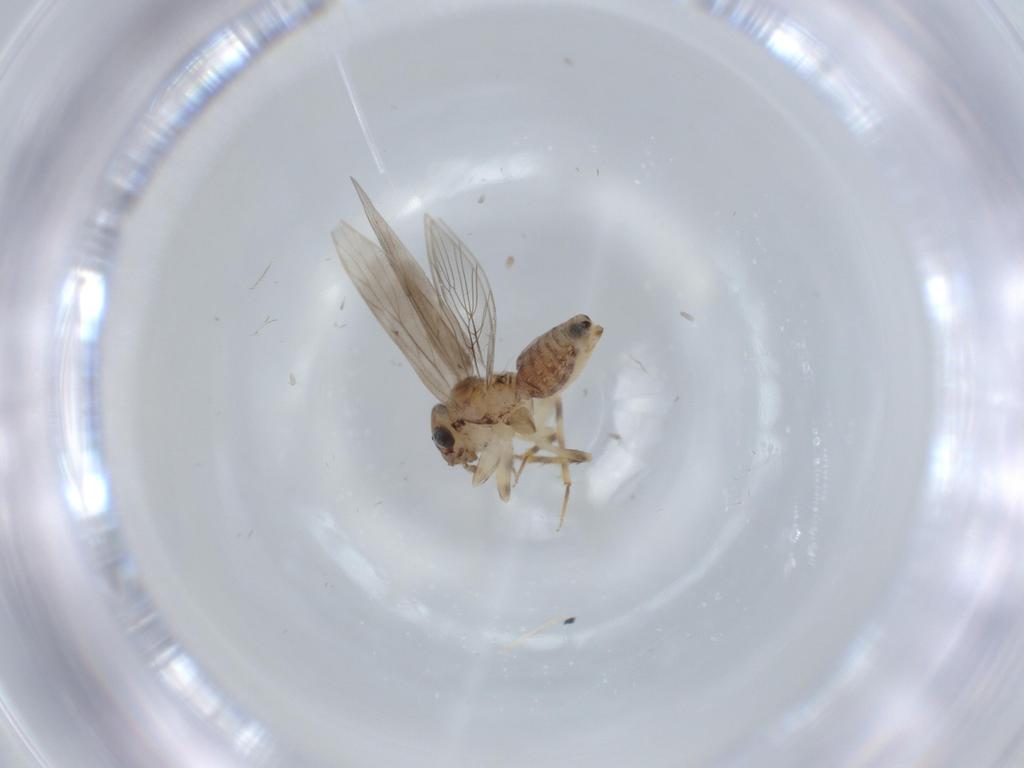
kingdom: Animalia
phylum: Arthropoda
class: Insecta
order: Psocodea
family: Lepidopsocidae
